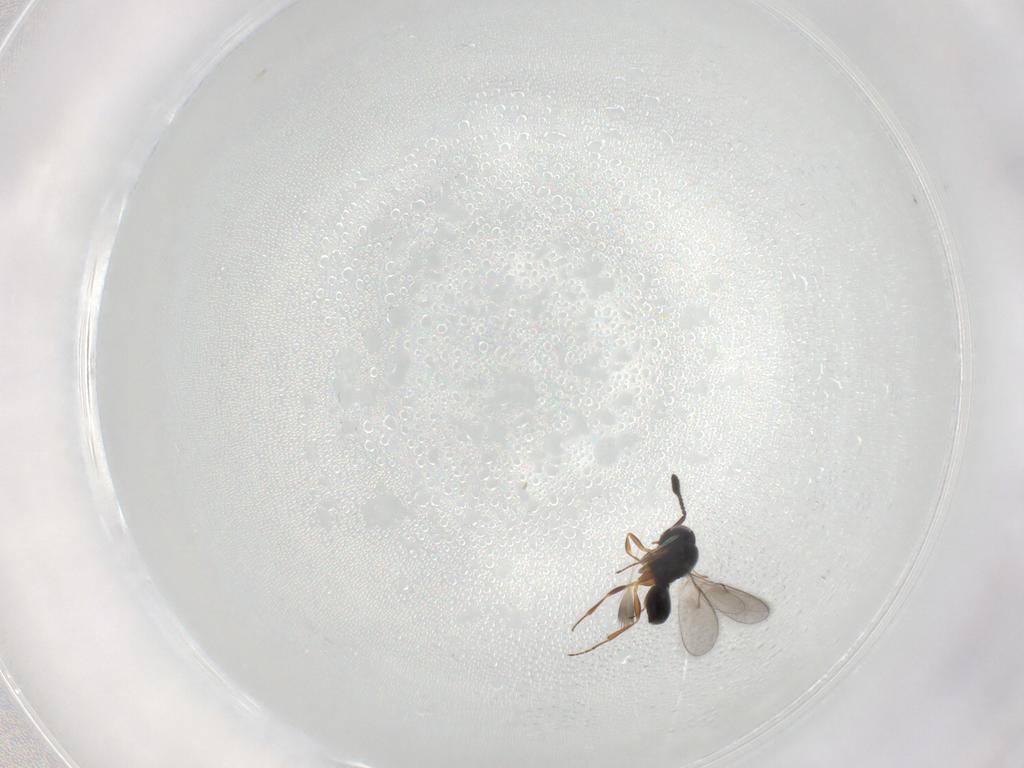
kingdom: Animalia
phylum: Arthropoda
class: Insecta
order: Hymenoptera
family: Scelionidae
